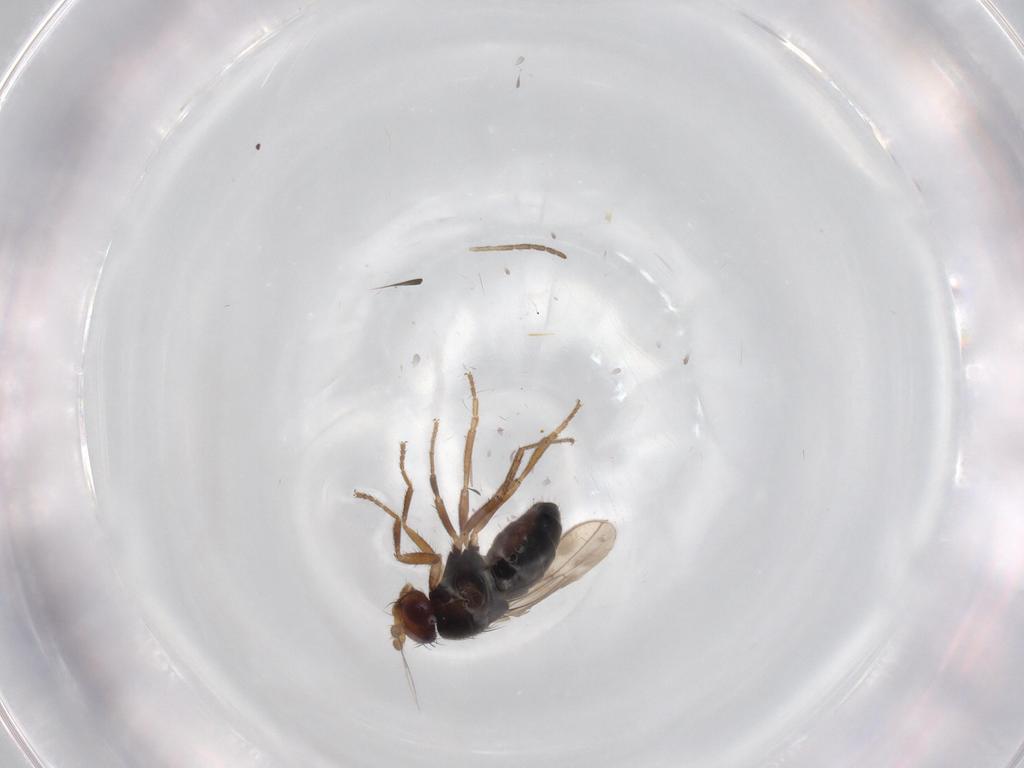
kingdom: Animalia
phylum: Arthropoda
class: Insecta
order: Diptera
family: Sphaeroceridae
